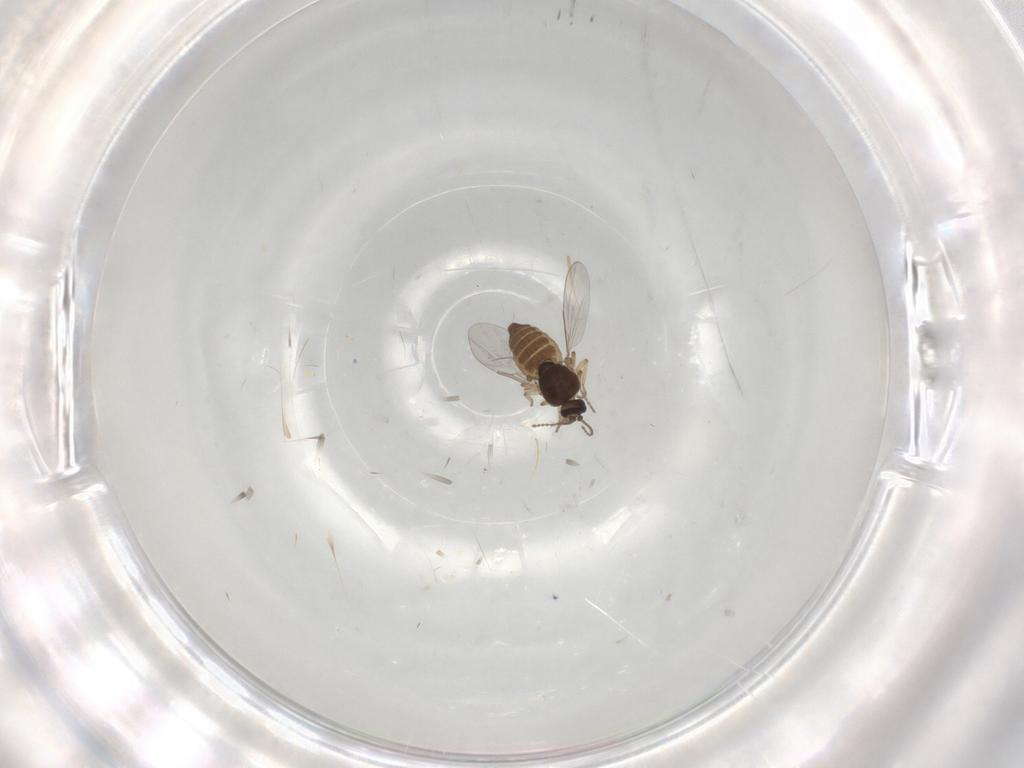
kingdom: Animalia
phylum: Arthropoda
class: Insecta
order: Diptera
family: Ceratopogonidae
